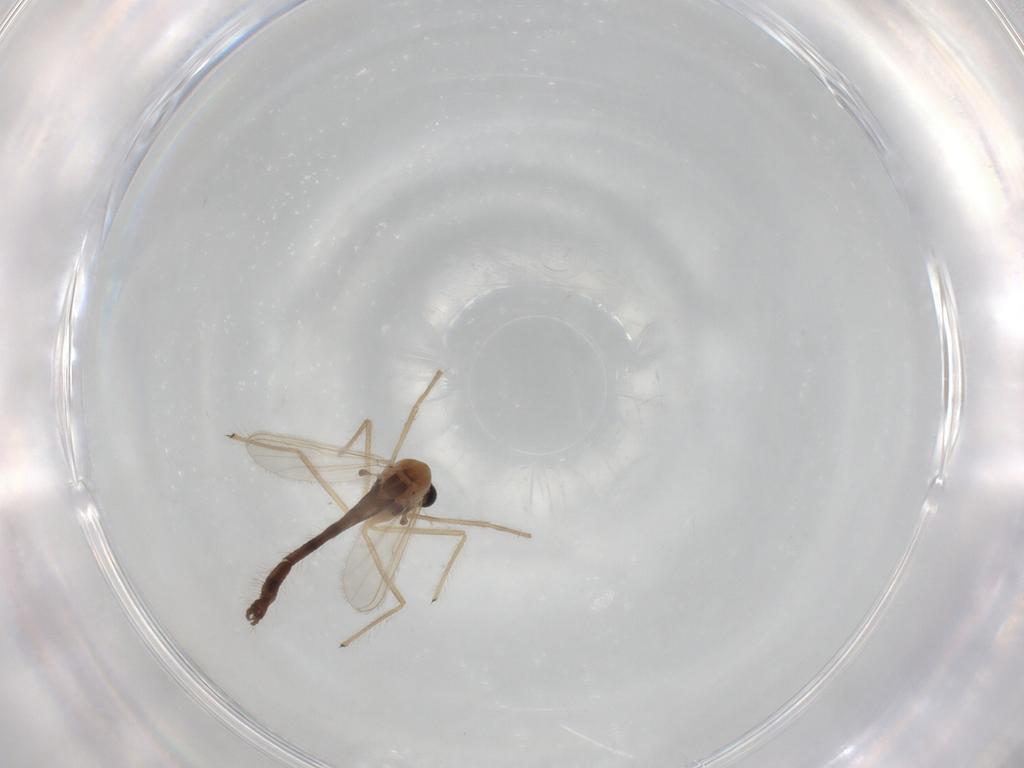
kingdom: Animalia
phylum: Arthropoda
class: Insecta
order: Diptera
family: Chironomidae
